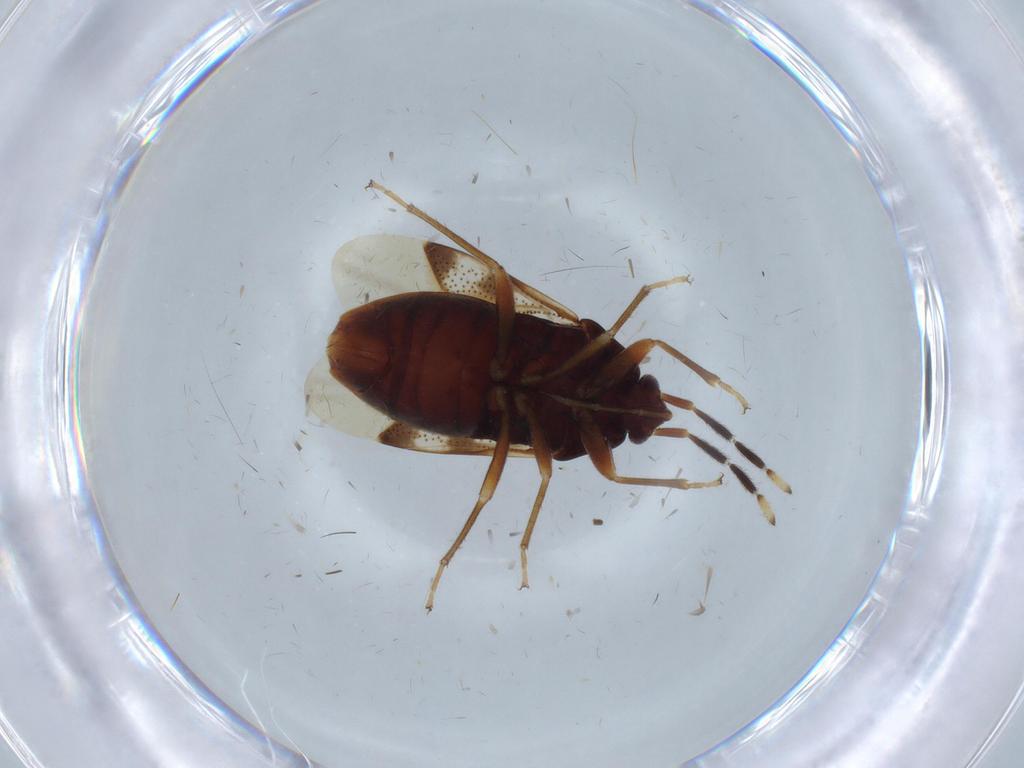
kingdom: Animalia
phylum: Arthropoda
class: Insecta
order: Hemiptera
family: Rhyparochromidae
